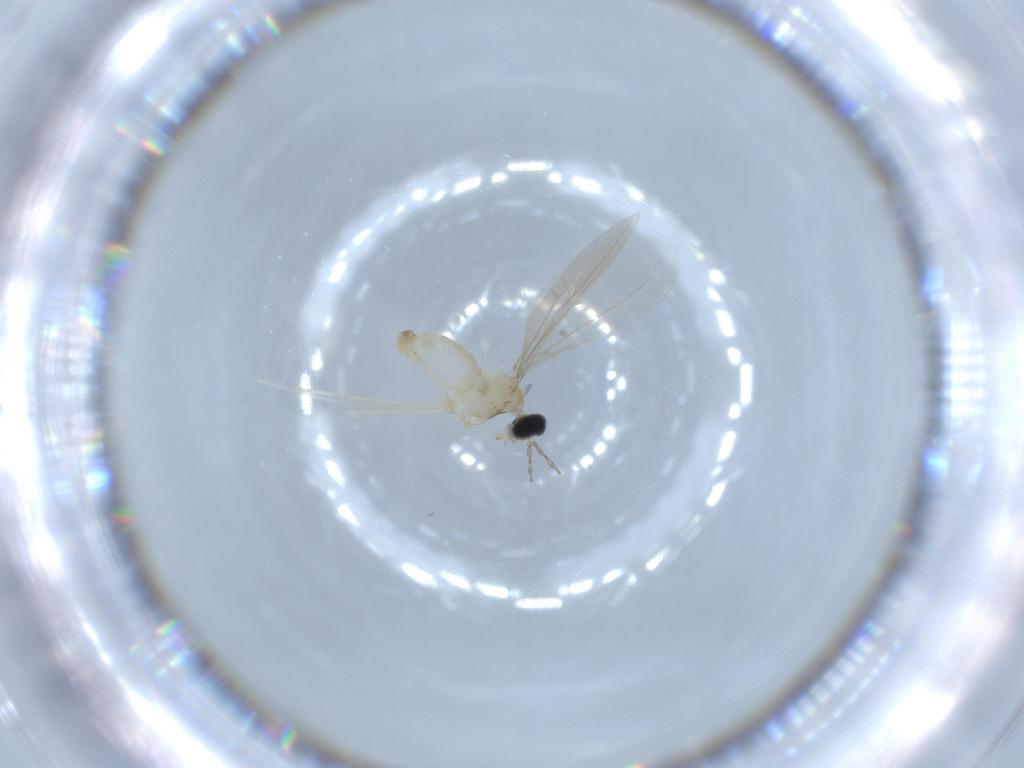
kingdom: Animalia
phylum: Arthropoda
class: Insecta
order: Diptera
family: Cecidomyiidae
